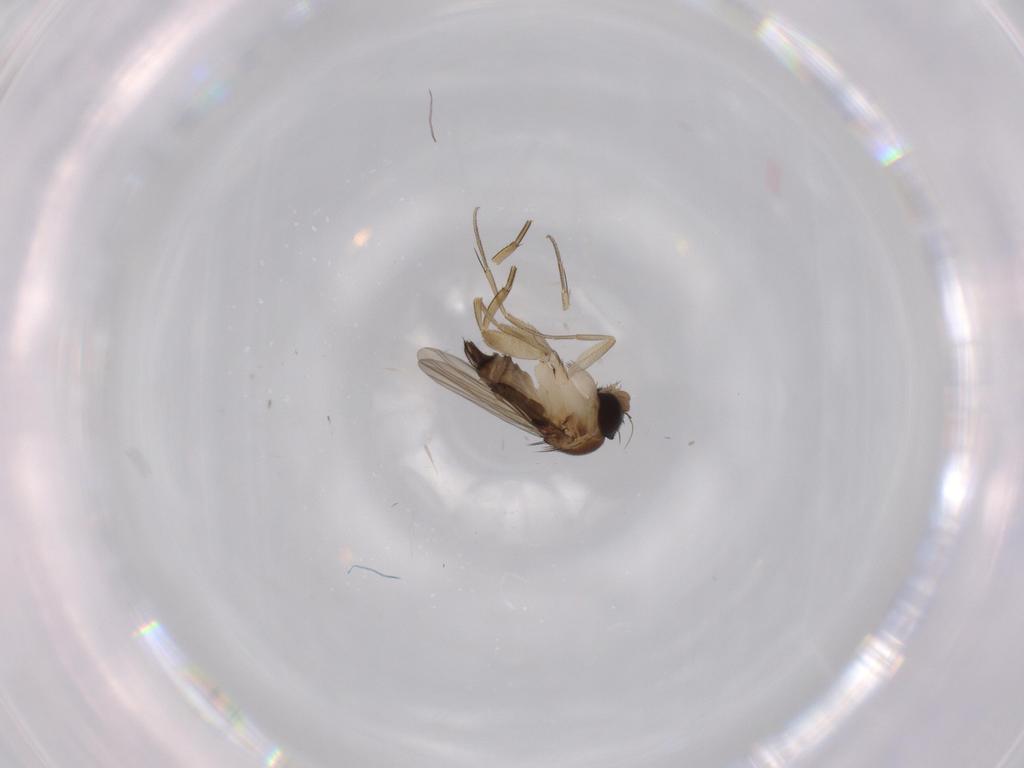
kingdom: Animalia
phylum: Arthropoda
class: Insecta
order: Diptera
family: Phoridae
